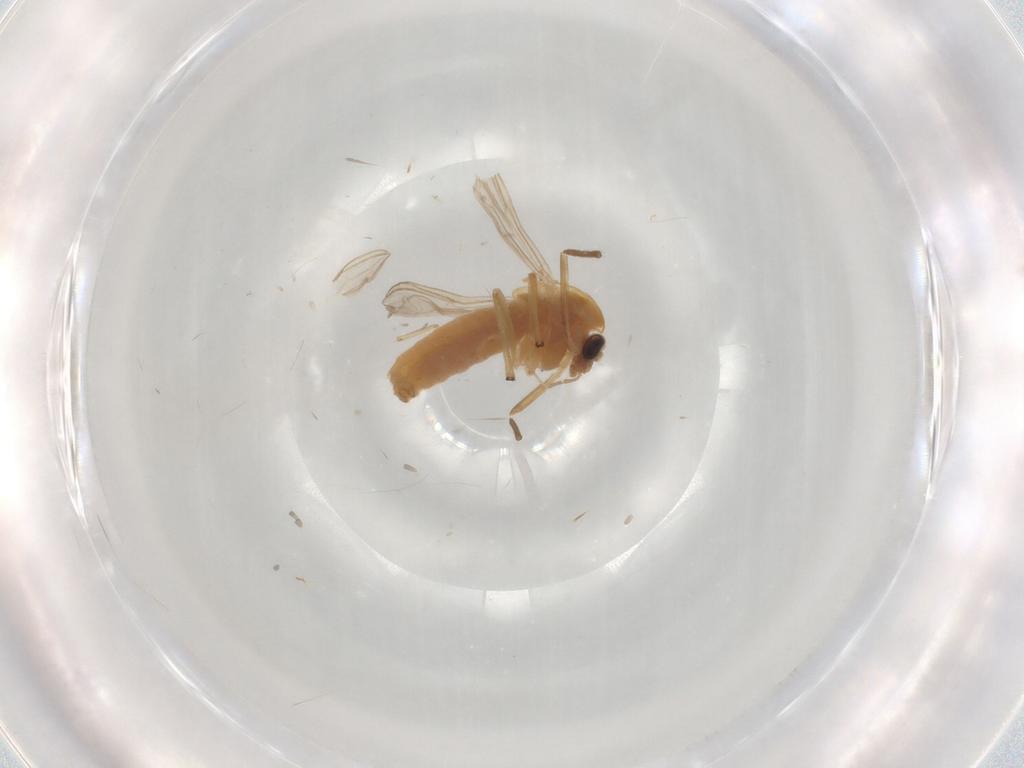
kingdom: Animalia
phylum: Arthropoda
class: Insecta
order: Diptera
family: Chironomidae
